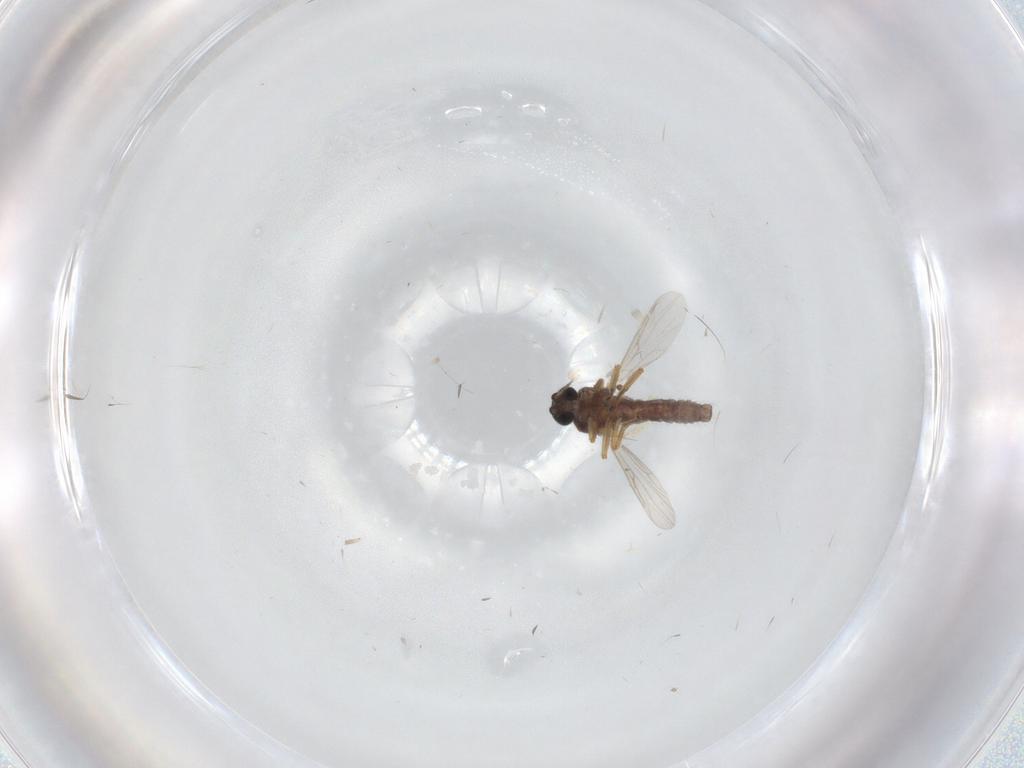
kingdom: Animalia
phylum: Arthropoda
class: Insecta
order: Diptera
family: Ceratopogonidae
